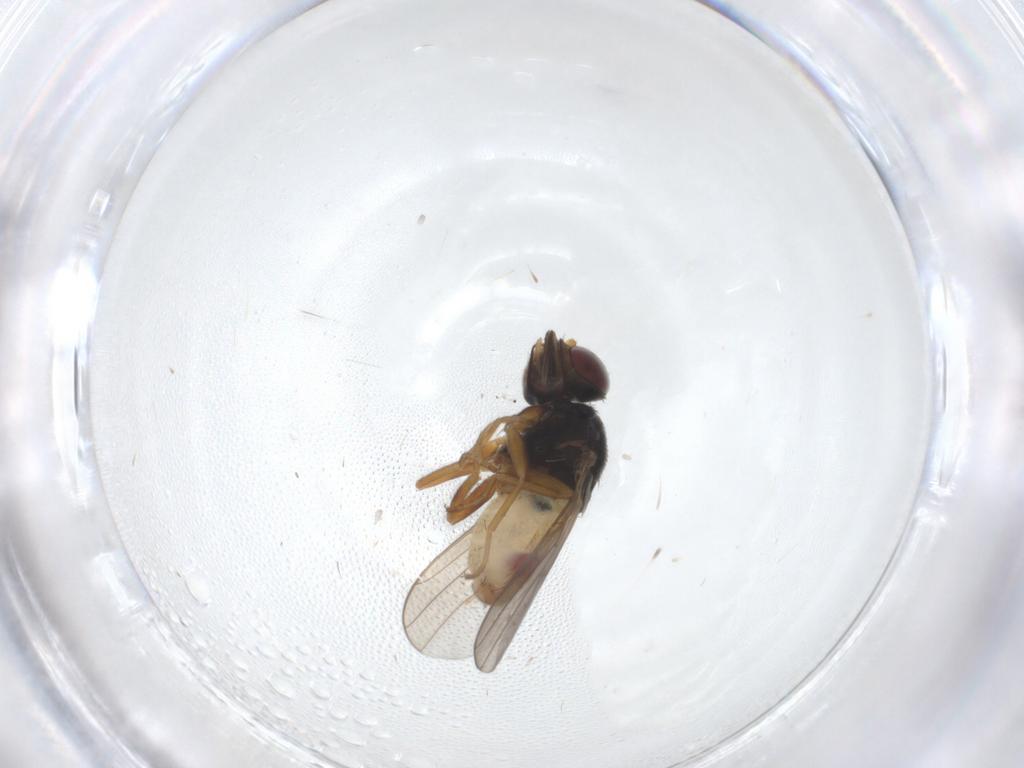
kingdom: Animalia
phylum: Arthropoda
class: Insecta
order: Diptera
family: Chloropidae
